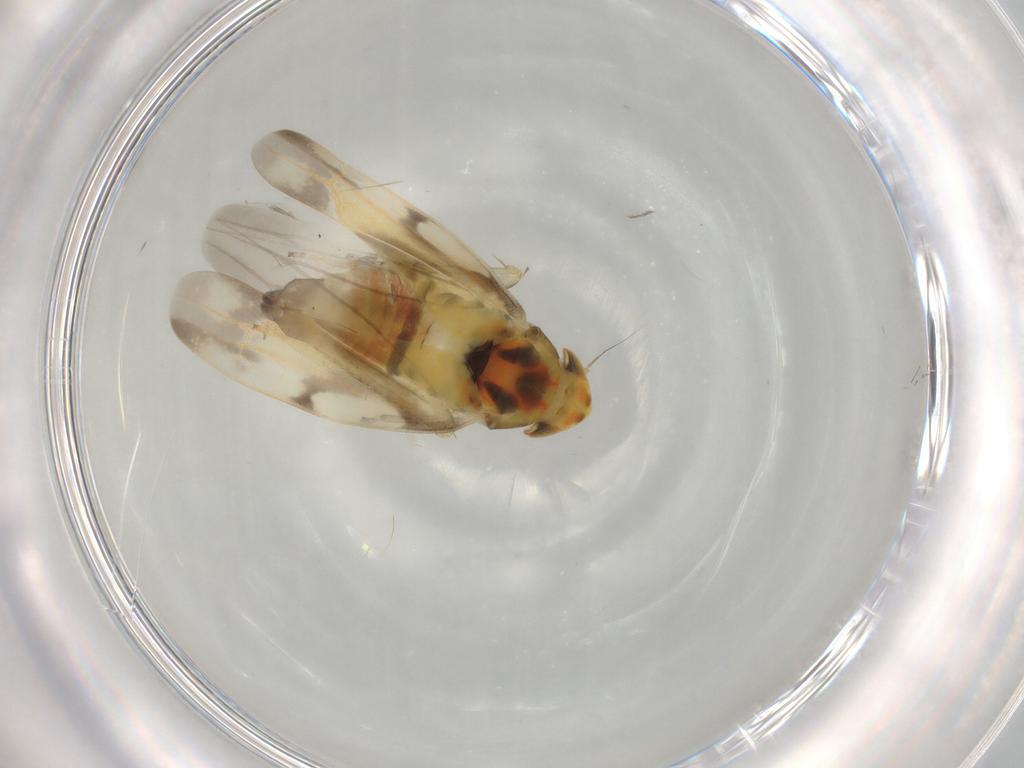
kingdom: Animalia
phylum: Arthropoda
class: Insecta
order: Hemiptera
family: Cicadellidae
